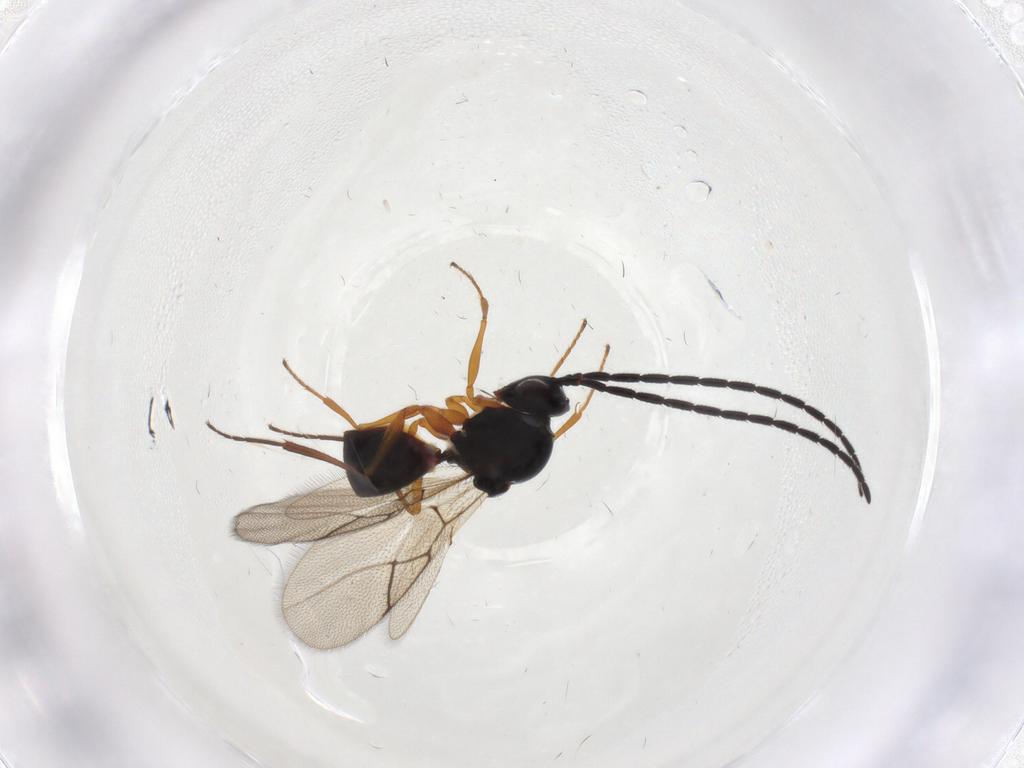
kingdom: Animalia
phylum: Arthropoda
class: Insecta
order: Hymenoptera
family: Figitidae
